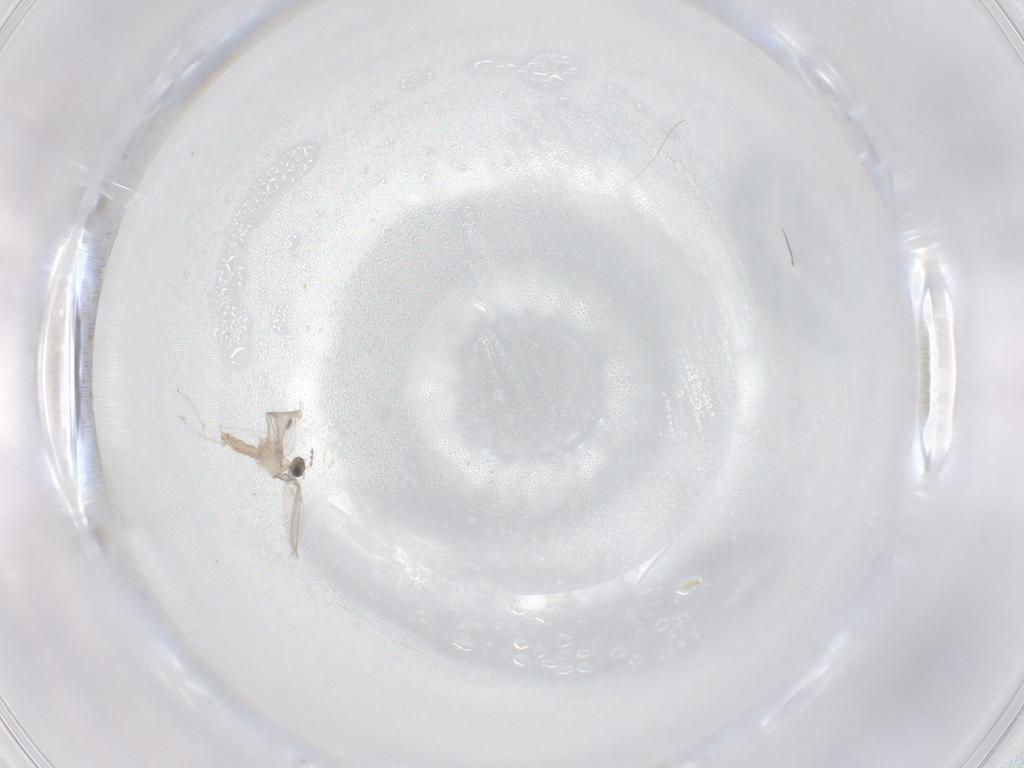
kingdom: Animalia
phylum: Arthropoda
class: Insecta
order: Diptera
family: Cecidomyiidae
